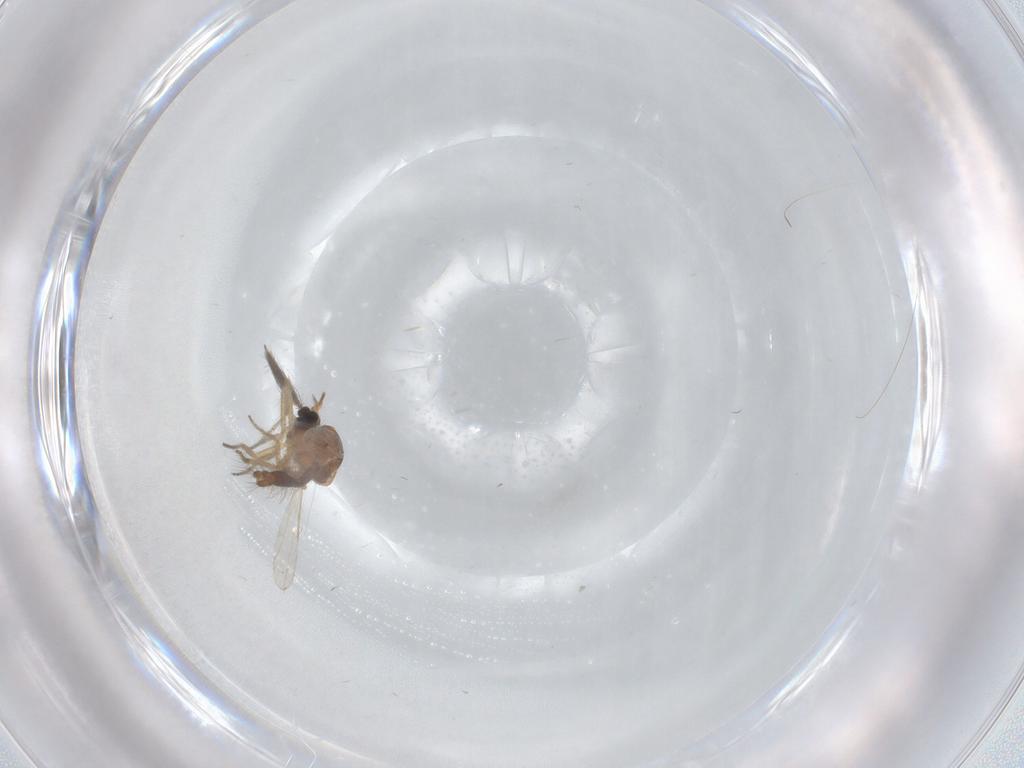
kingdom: Animalia
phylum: Arthropoda
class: Insecta
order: Diptera
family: Ceratopogonidae
